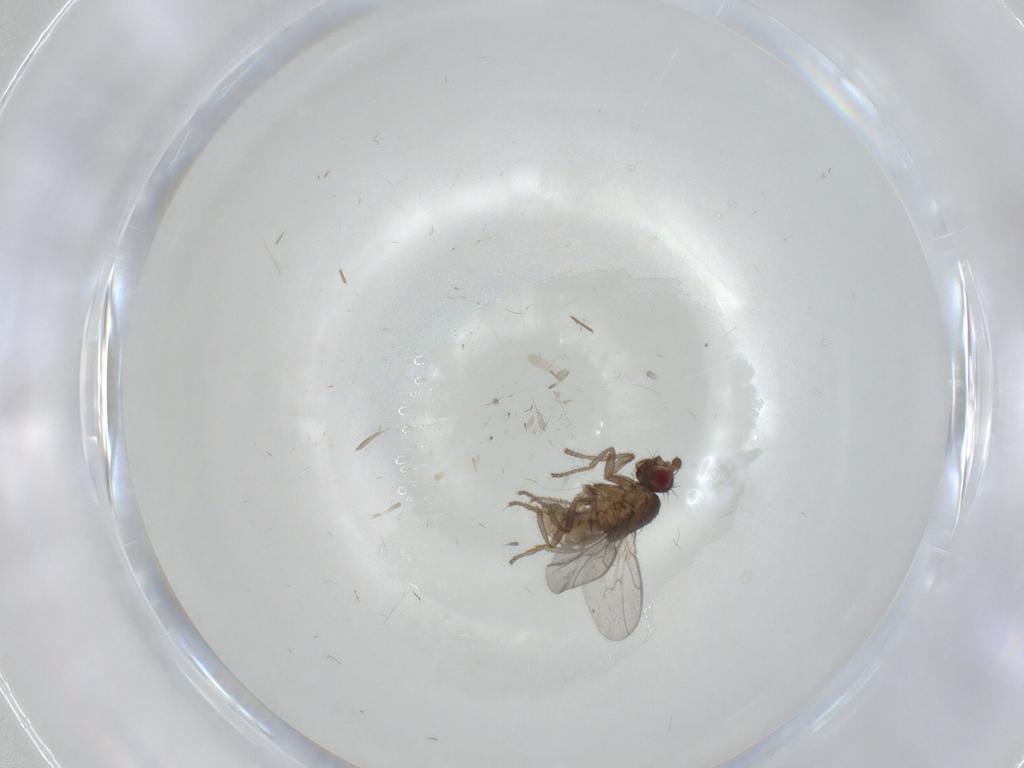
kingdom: Animalia
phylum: Arthropoda
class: Insecta
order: Diptera
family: Sphaeroceridae
